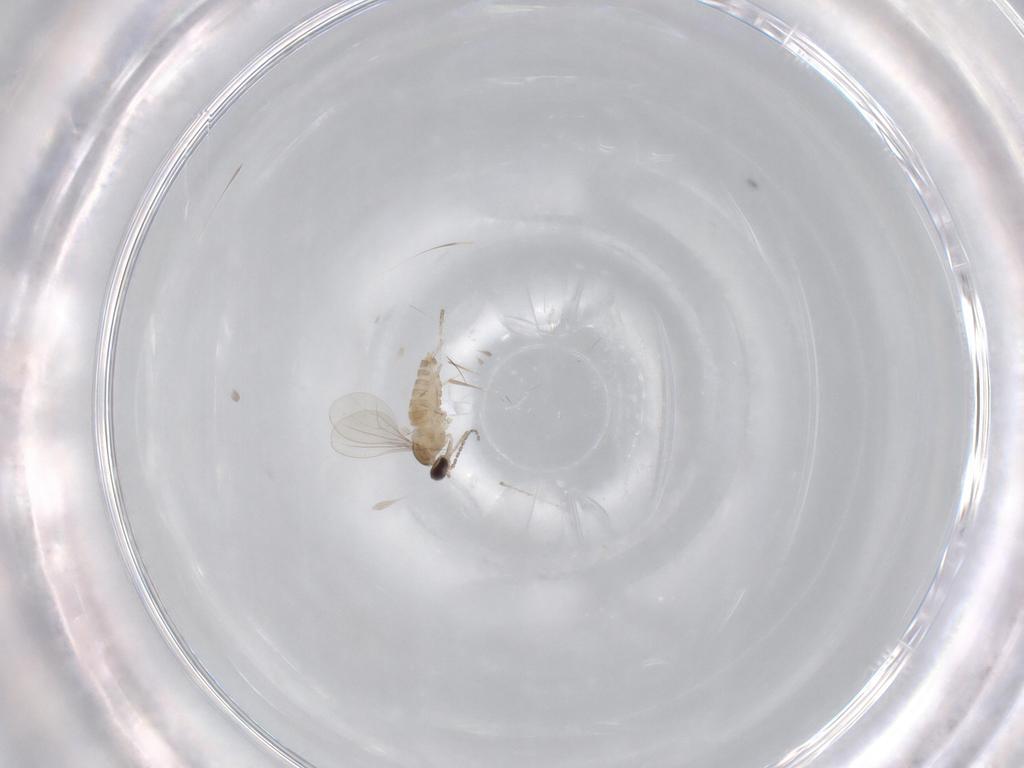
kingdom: Animalia
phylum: Arthropoda
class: Insecta
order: Diptera
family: Cecidomyiidae
